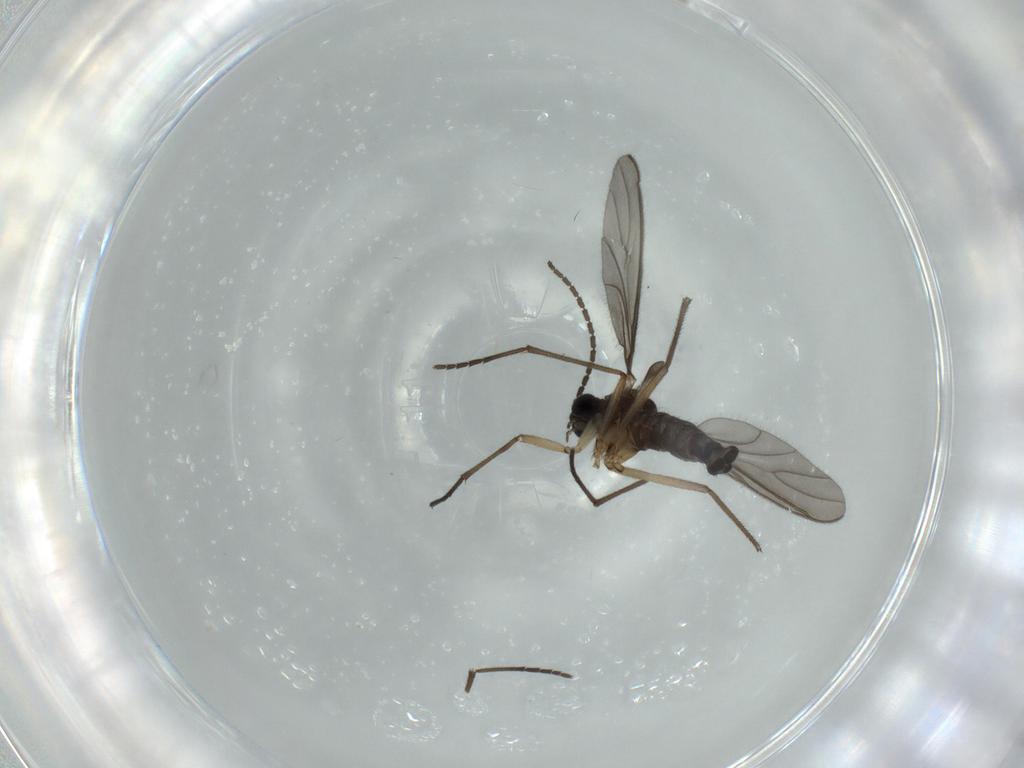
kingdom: Animalia
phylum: Arthropoda
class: Insecta
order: Diptera
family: Sciaridae
